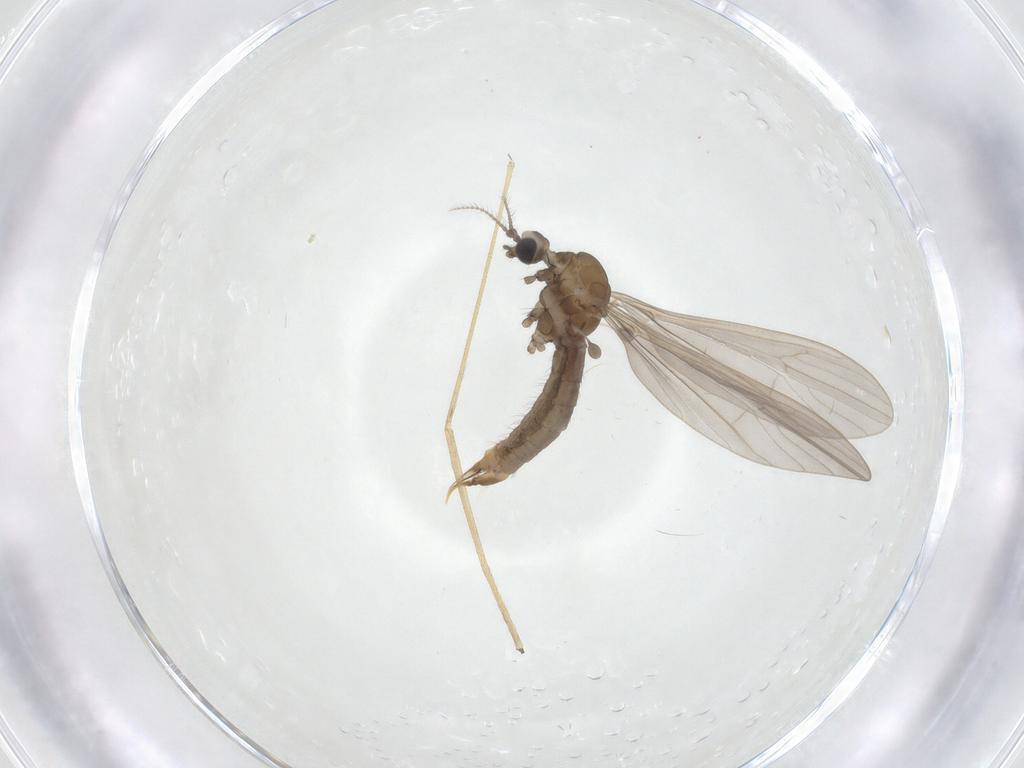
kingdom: Animalia
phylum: Arthropoda
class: Insecta
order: Diptera
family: Limoniidae
